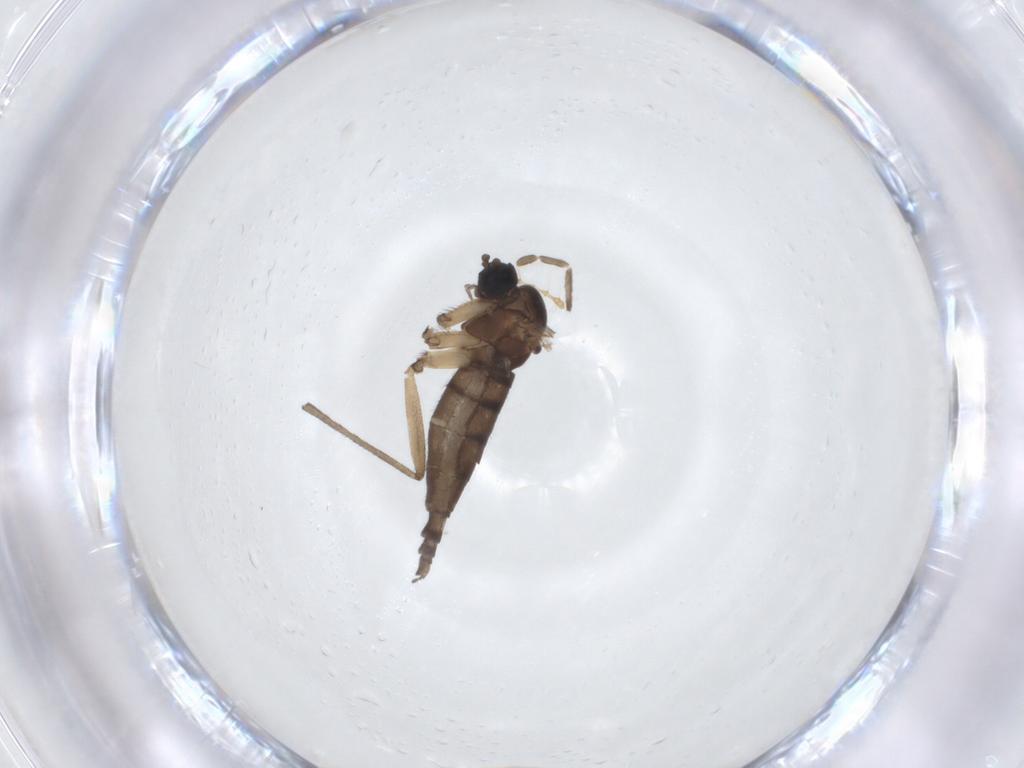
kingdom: Animalia
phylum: Arthropoda
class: Insecta
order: Diptera
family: Sciaridae
